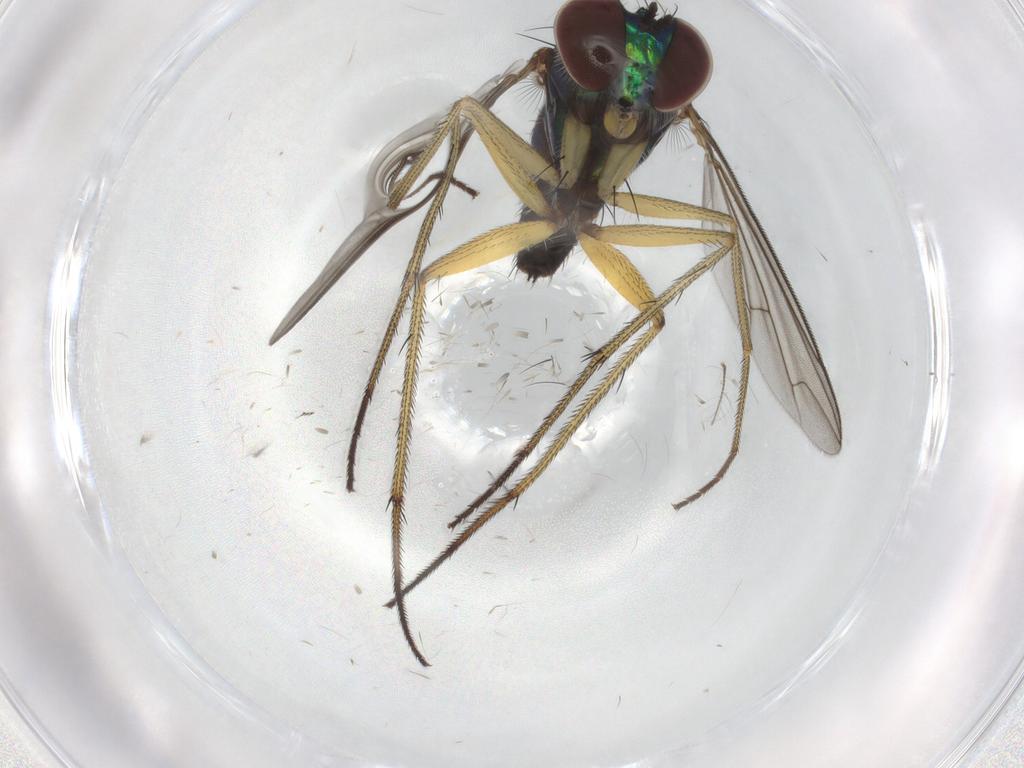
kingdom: Animalia
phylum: Arthropoda
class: Insecta
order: Diptera
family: Dolichopodidae
